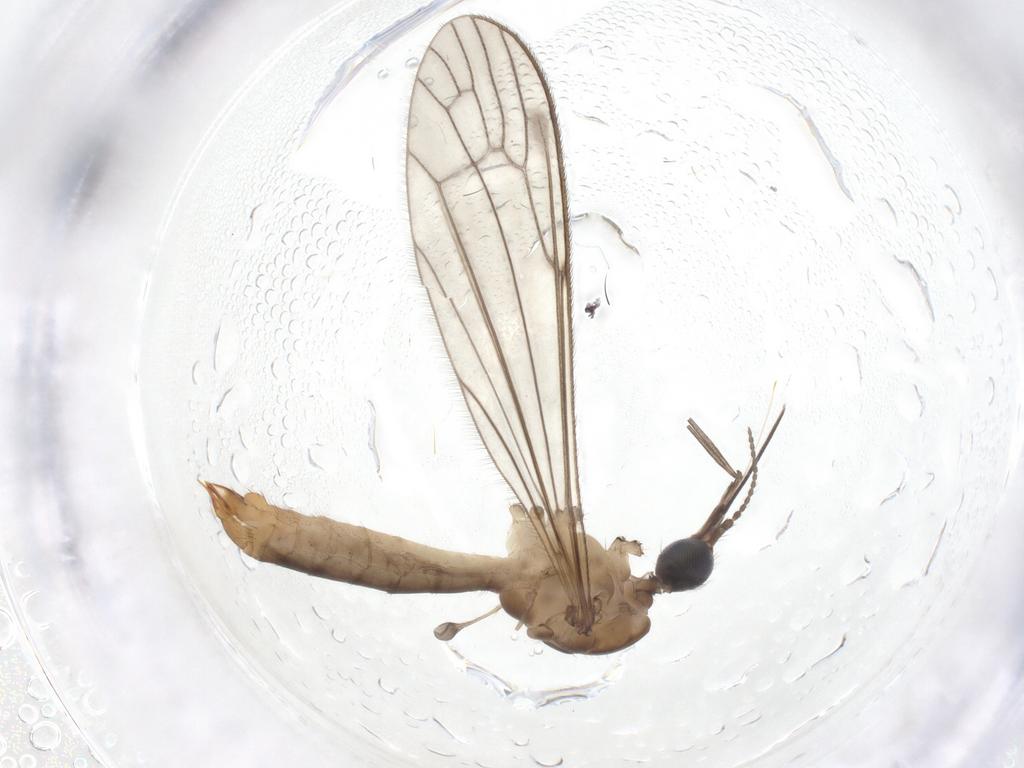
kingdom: Animalia
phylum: Arthropoda
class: Insecta
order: Diptera
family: Limoniidae
